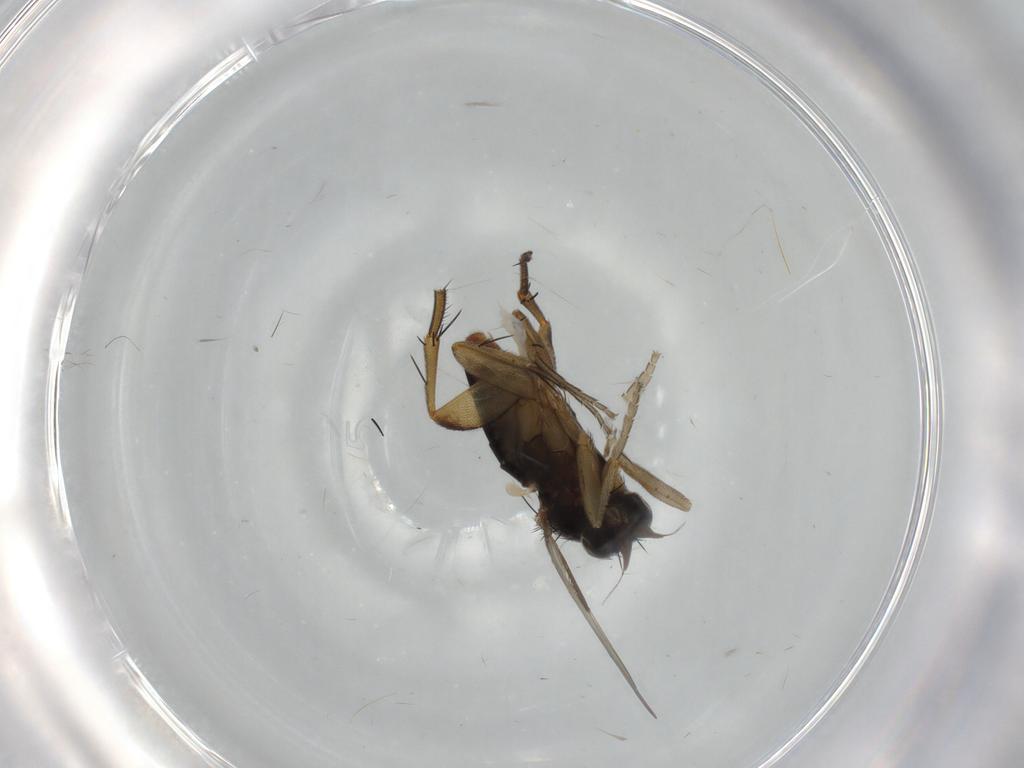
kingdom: Animalia
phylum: Arthropoda
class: Insecta
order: Diptera
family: Phoridae
